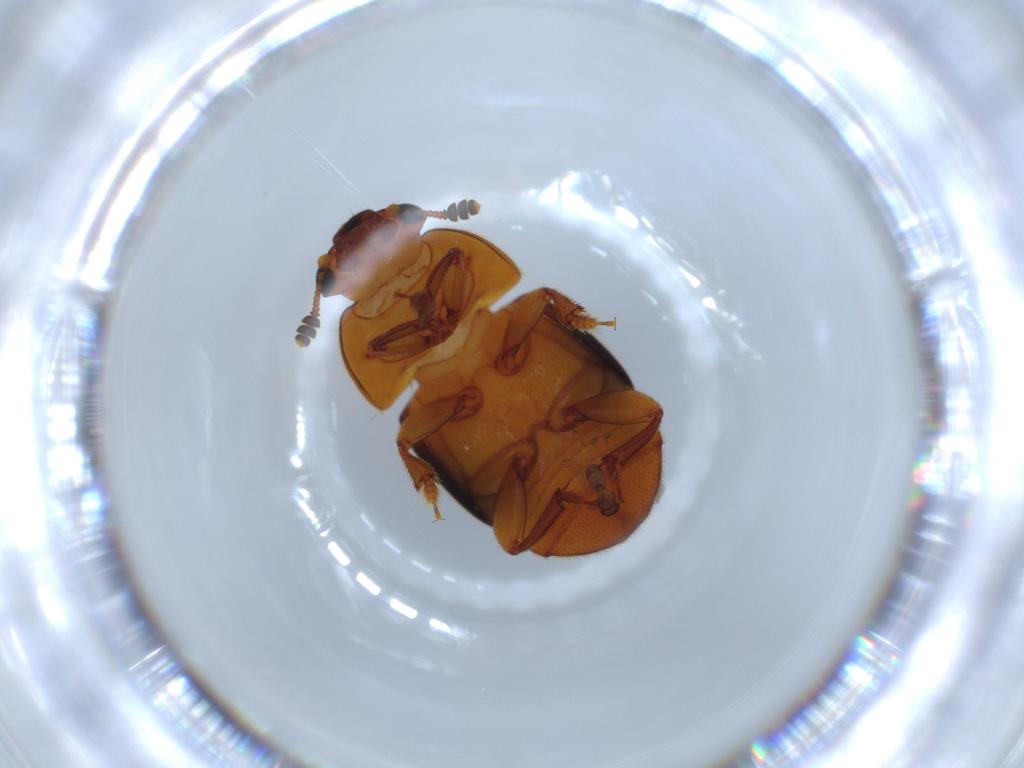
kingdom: Animalia
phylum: Arthropoda
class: Insecta
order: Coleoptera
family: Nitidulidae
